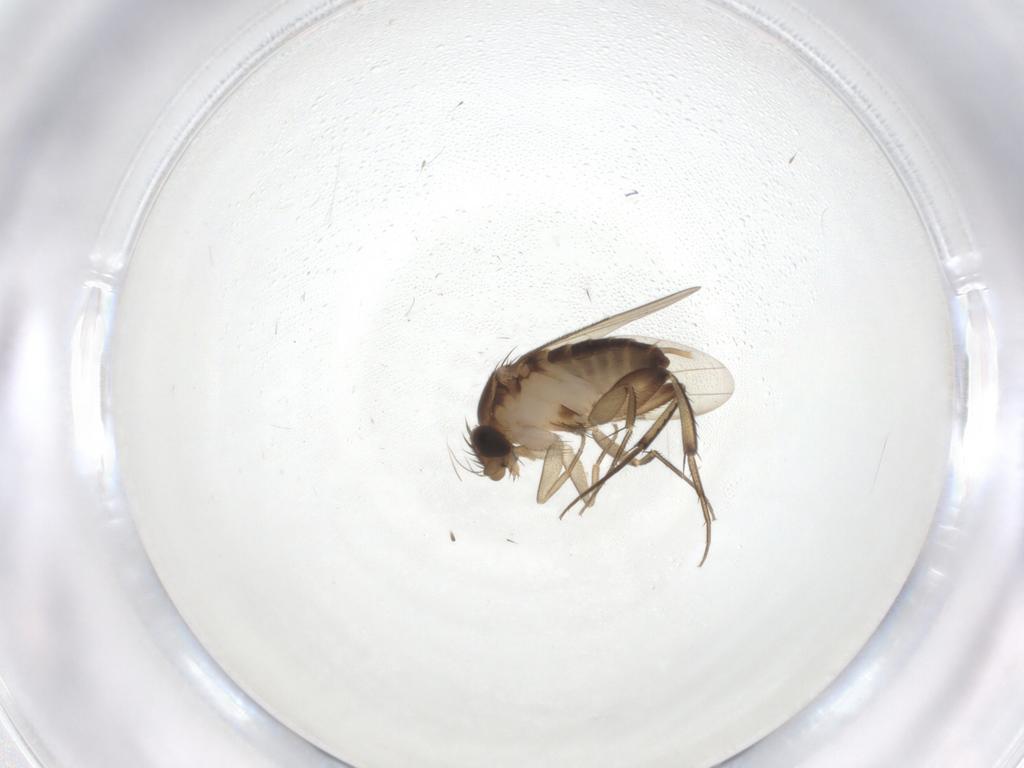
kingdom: Animalia
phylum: Arthropoda
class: Insecta
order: Diptera
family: Phoridae
